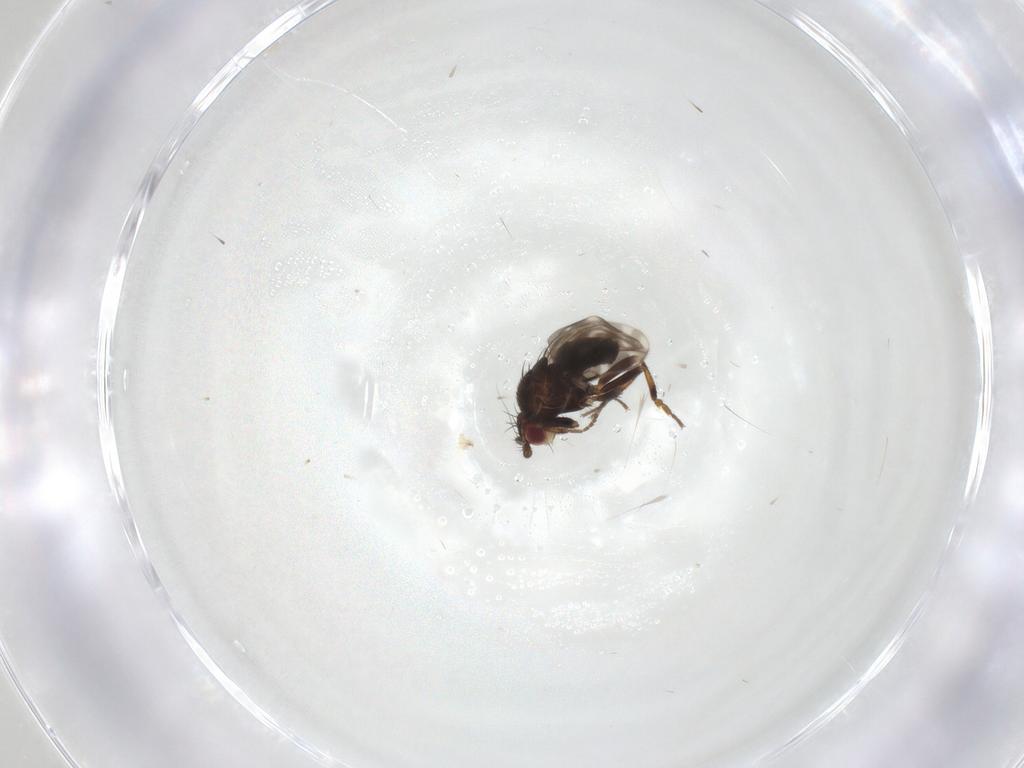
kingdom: Animalia
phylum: Arthropoda
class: Insecta
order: Diptera
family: Sphaeroceridae
